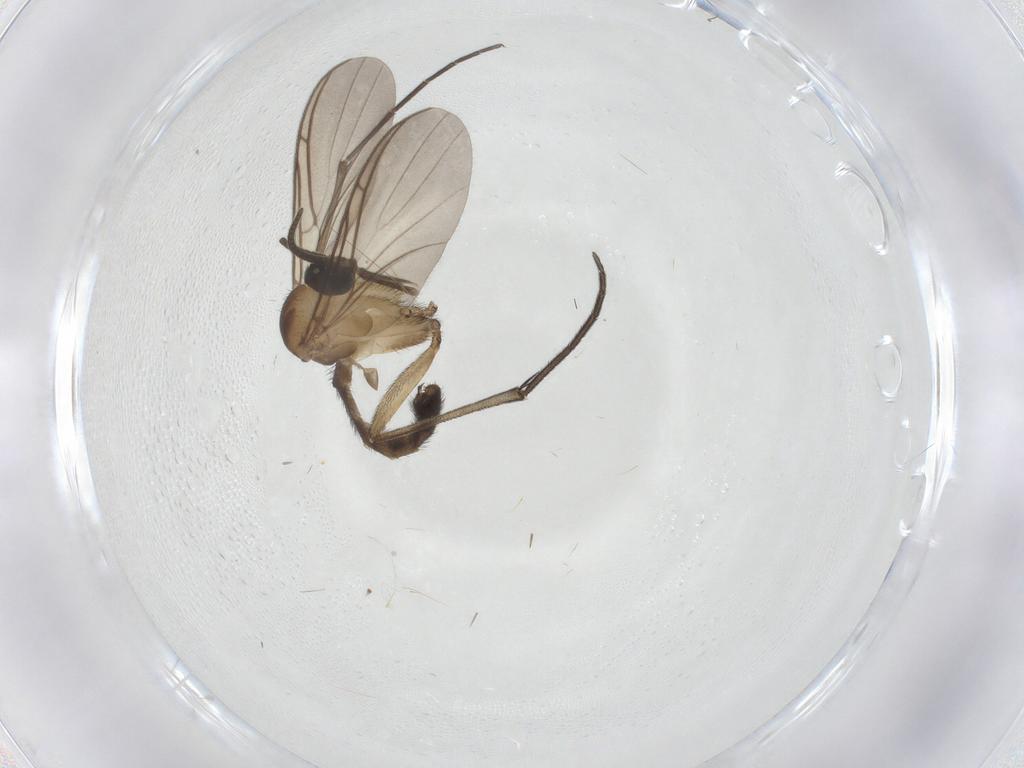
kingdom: Animalia
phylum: Arthropoda
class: Insecta
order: Diptera
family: Keroplatidae
